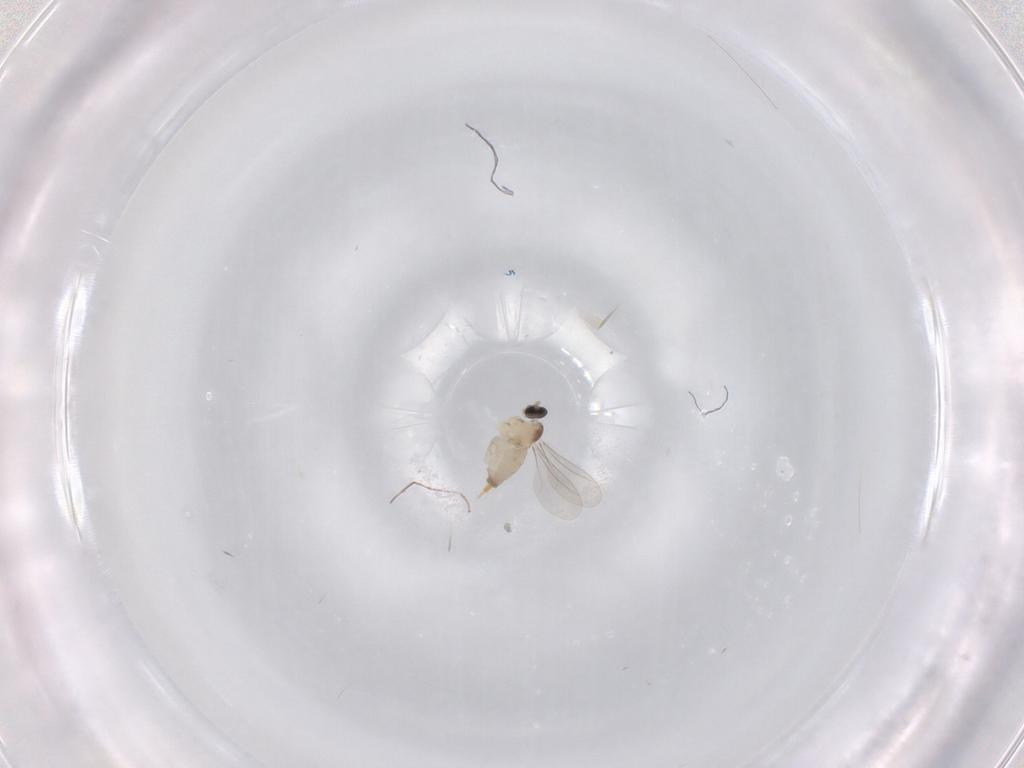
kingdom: Animalia
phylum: Arthropoda
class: Insecta
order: Diptera
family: Cecidomyiidae
